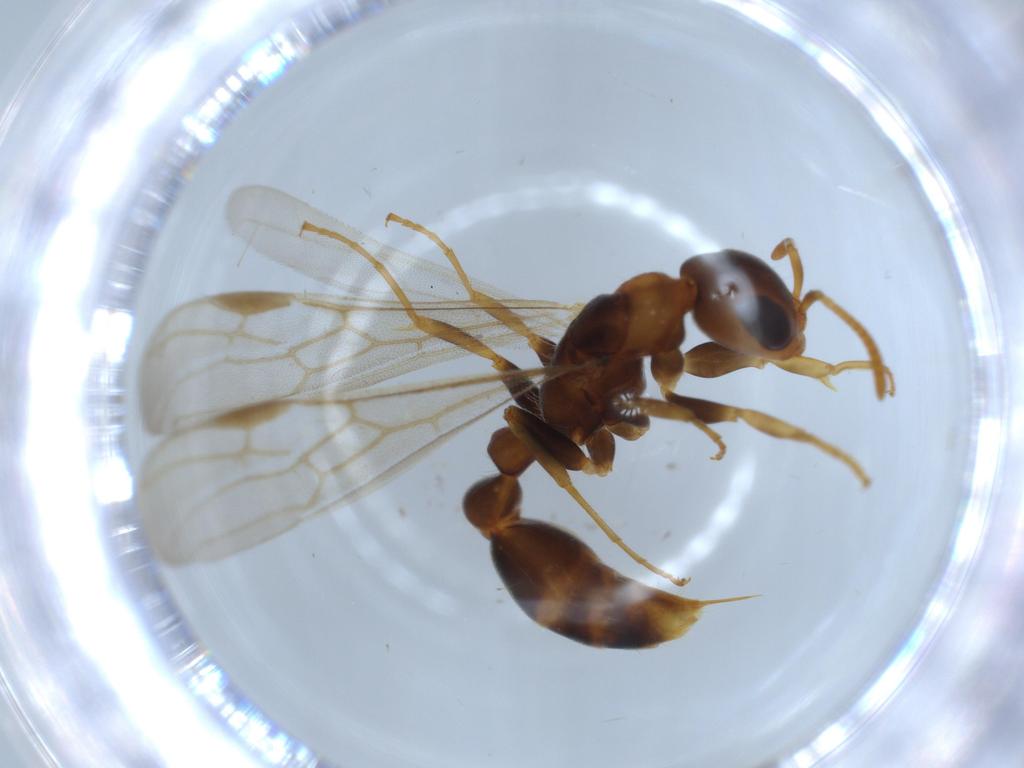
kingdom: Animalia
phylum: Arthropoda
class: Insecta
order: Hymenoptera
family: Formicidae
